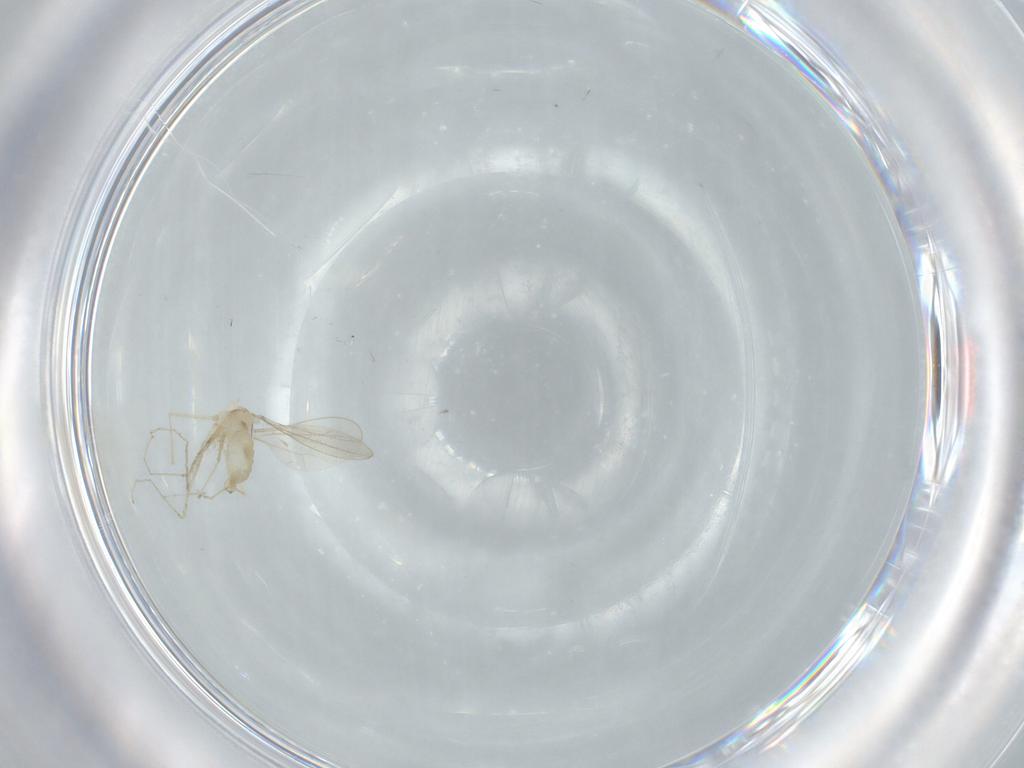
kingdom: Animalia
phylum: Arthropoda
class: Insecta
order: Diptera
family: Cecidomyiidae
